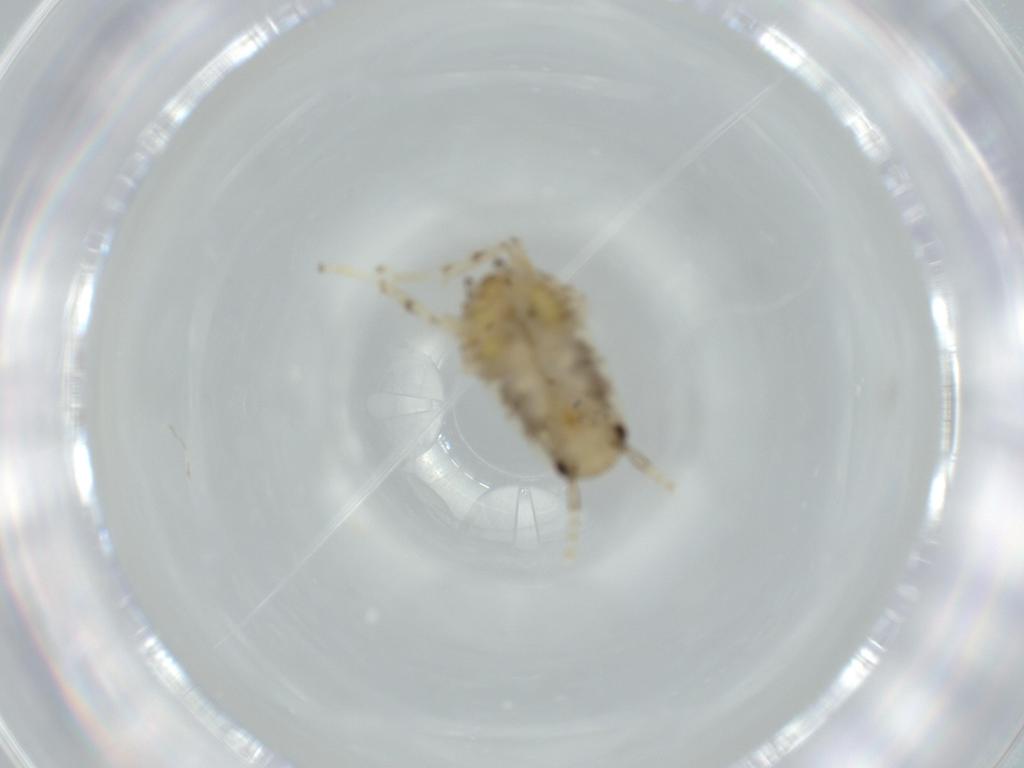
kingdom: Animalia
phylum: Arthropoda
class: Insecta
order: Blattodea
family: Ectobiidae
